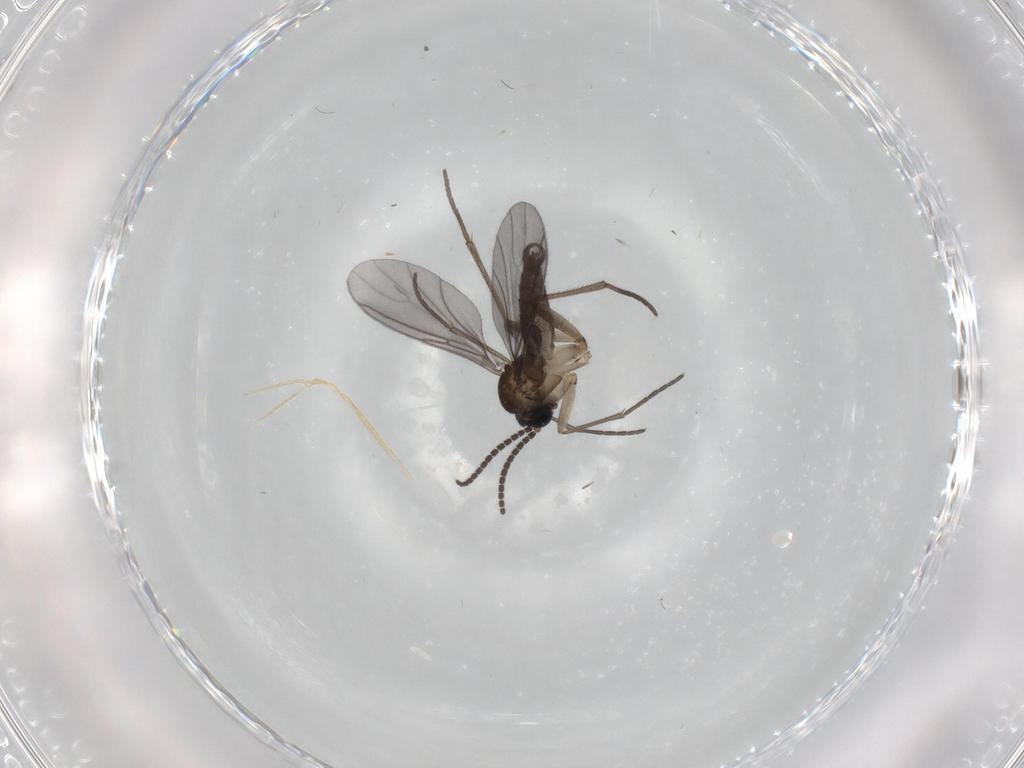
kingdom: Animalia
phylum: Arthropoda
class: Insecta
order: Diptera
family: Sciaridae
